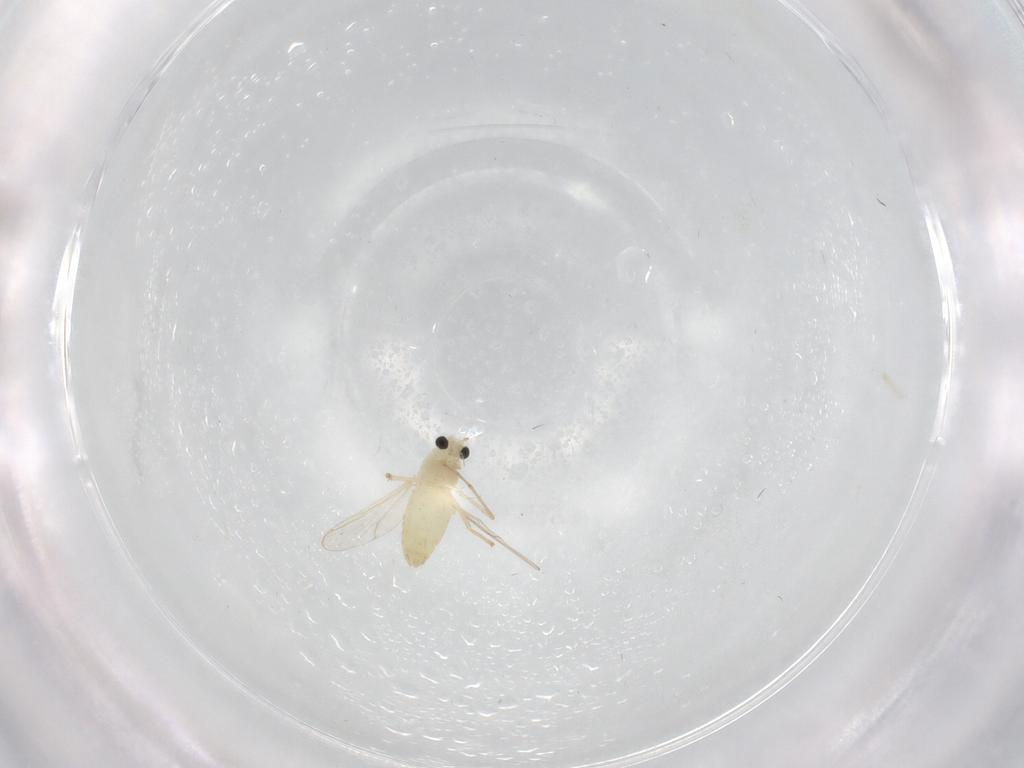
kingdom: Animalia
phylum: Arthropoda
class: Insecta
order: Diptera
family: Chironomidae
